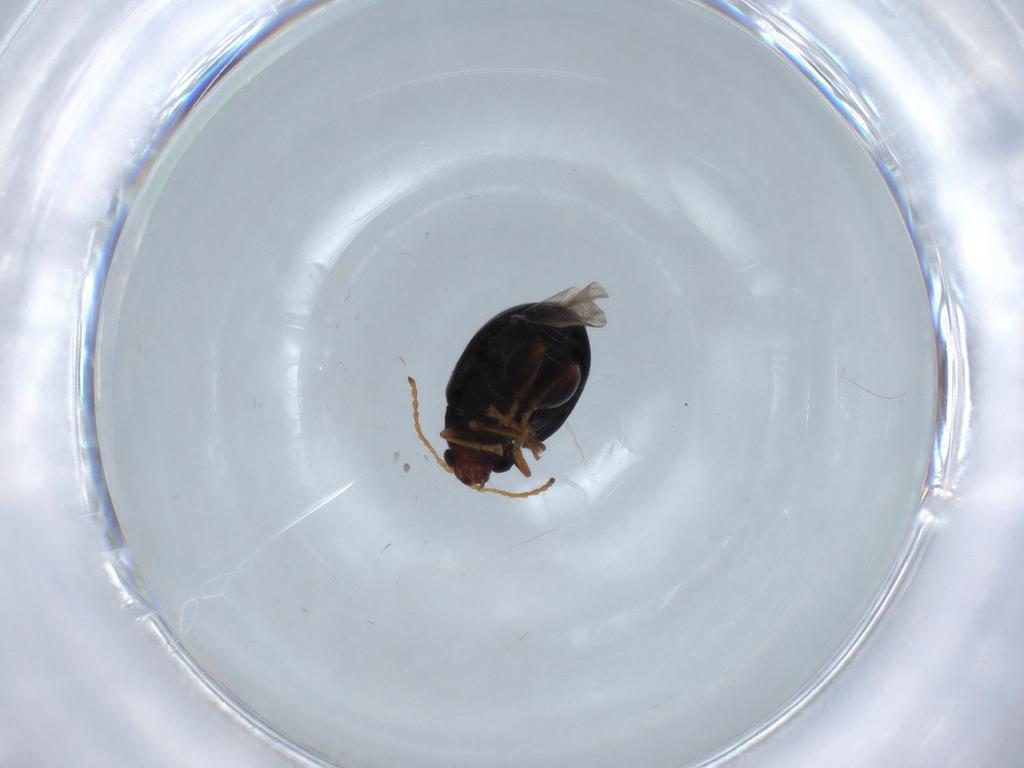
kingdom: Animalia
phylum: Arthropoda
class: Insecta
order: Coleoptera
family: Chrysomelidae
